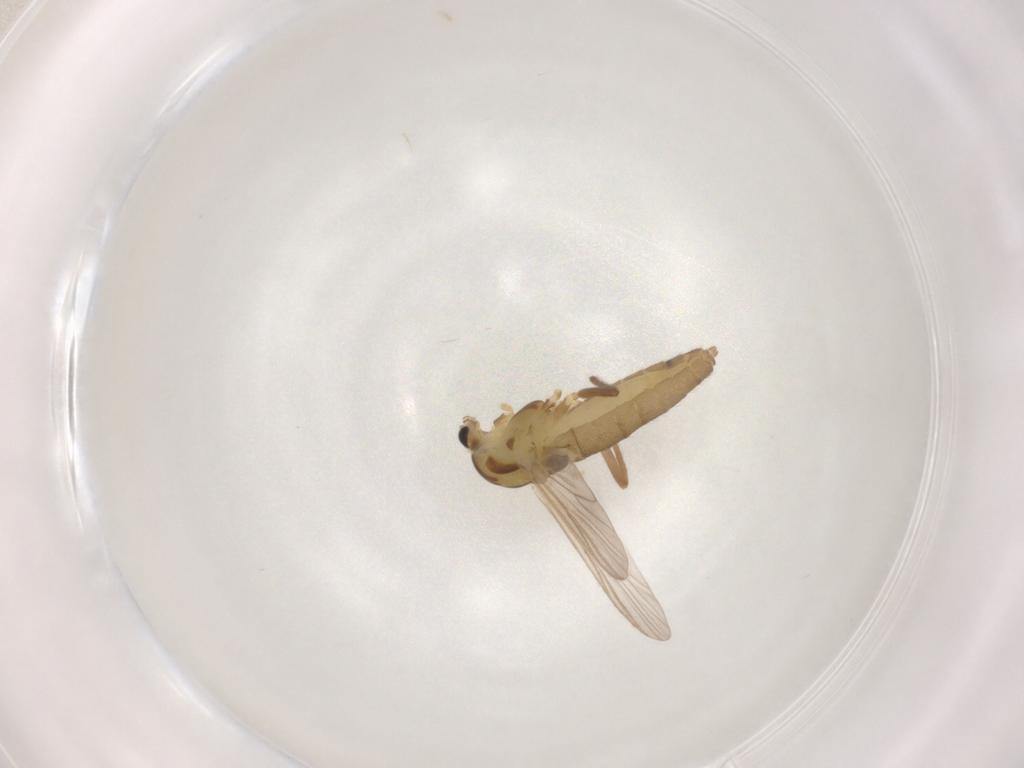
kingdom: Animalia
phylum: Arthropoda
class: Insecta
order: Diptera
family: Chironomidae
